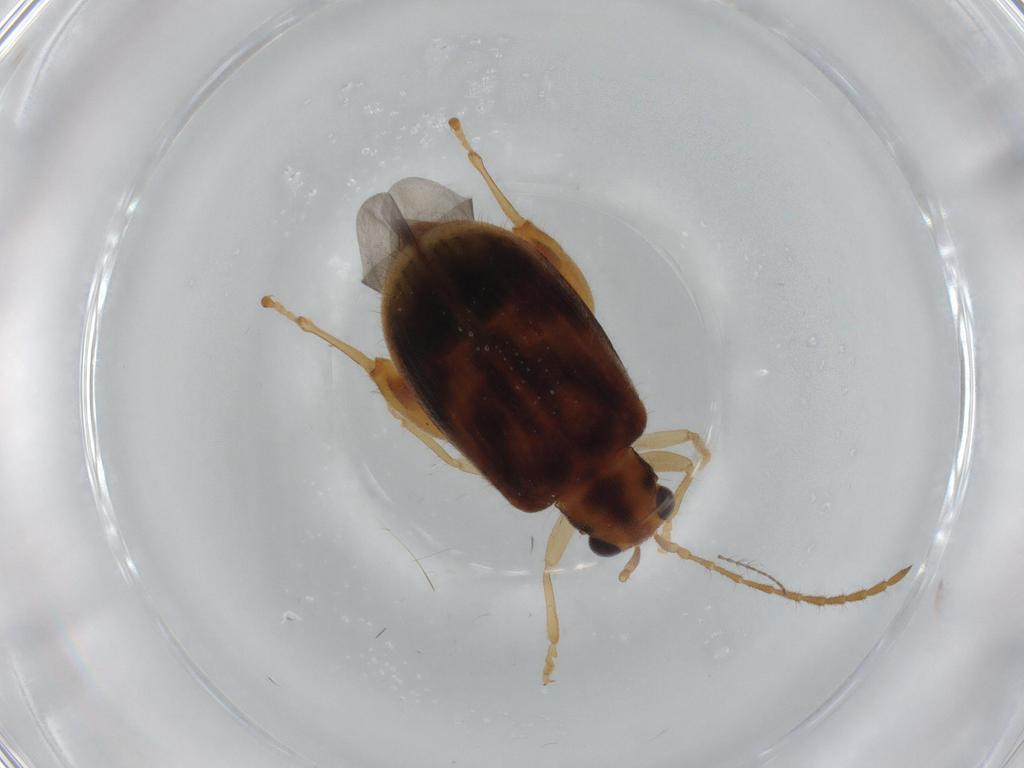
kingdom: Animalia
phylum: Arthropoda
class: Insecta
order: Coleoptera
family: Chrysomelidae
